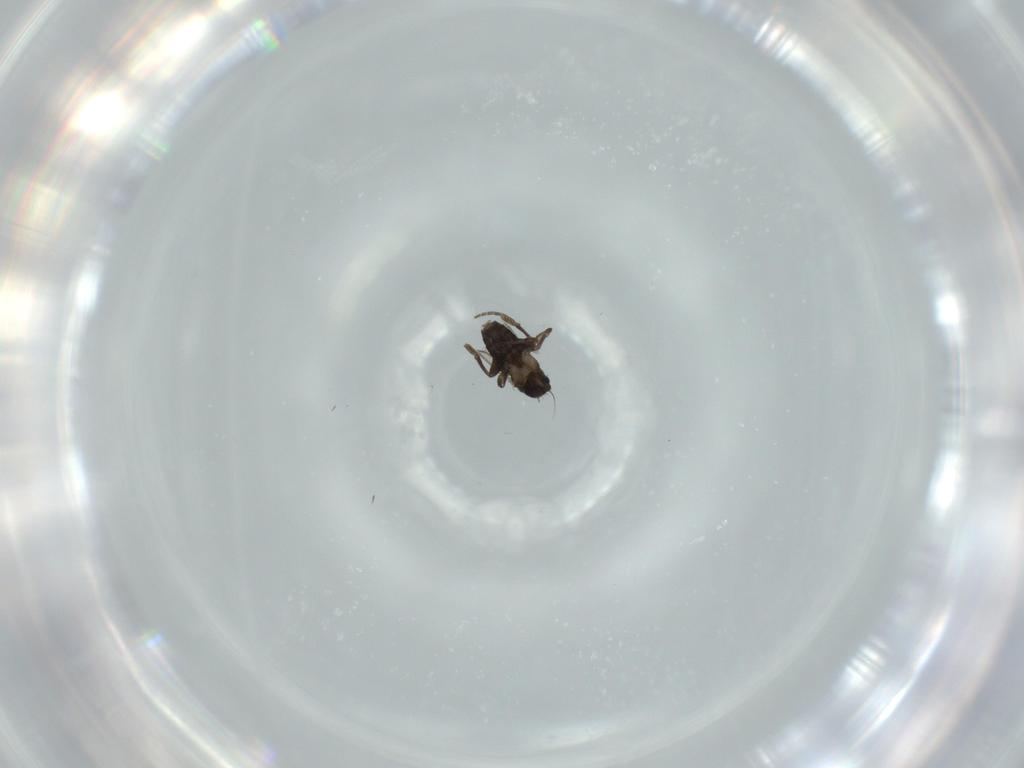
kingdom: Animalia
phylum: Arthropoda
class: Insecta
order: Diptera
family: Phoridae
